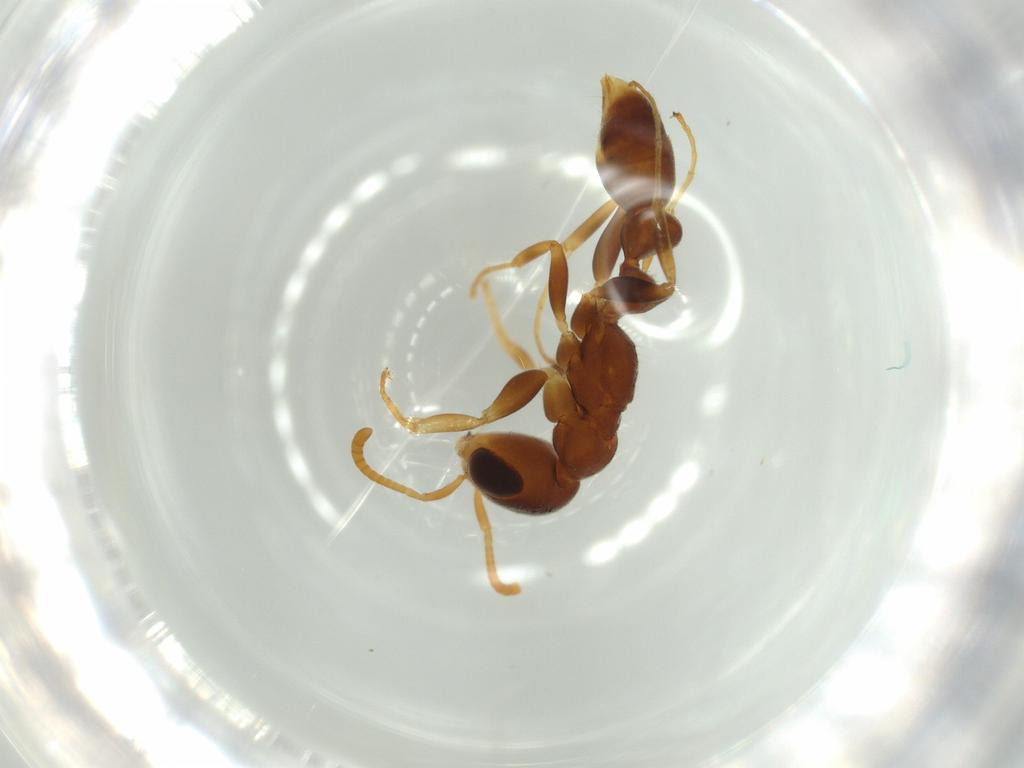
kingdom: Animalia
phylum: Arthropoda
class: Insecta
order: Hymenoptera
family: Formicidae
